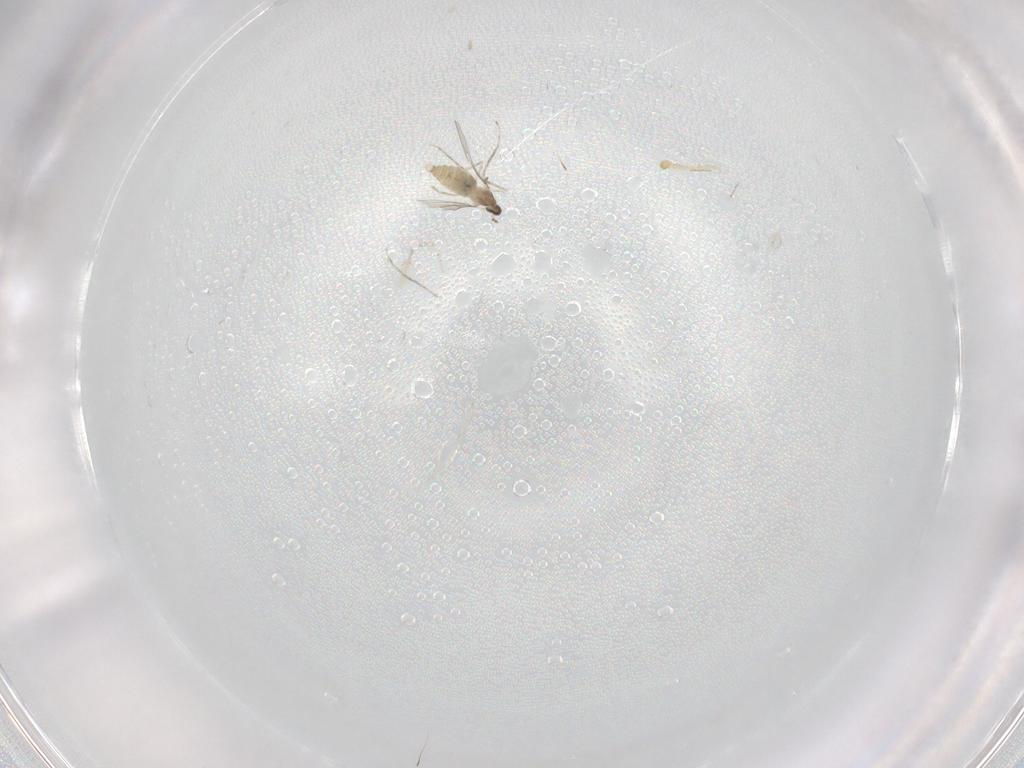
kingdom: Animalia
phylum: Arthropoda
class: Insecta
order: Diptera
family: Cecidomyiidae
